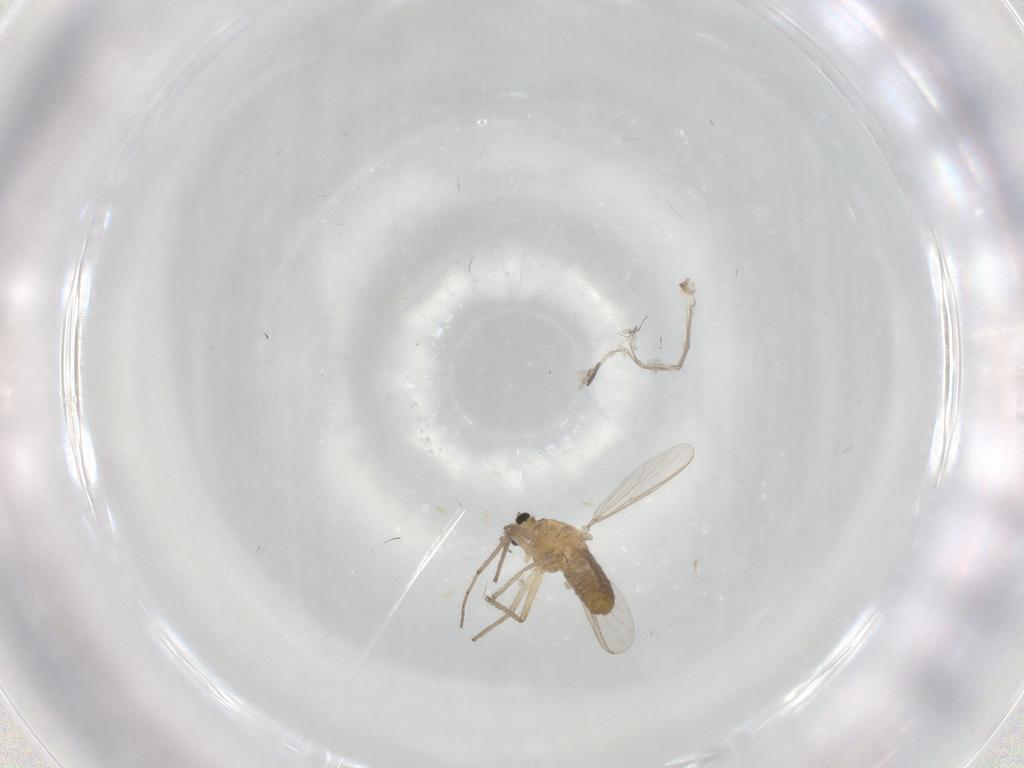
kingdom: Animalia
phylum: Arthropoda
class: Insecta
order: Diptera
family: Chironomidae
